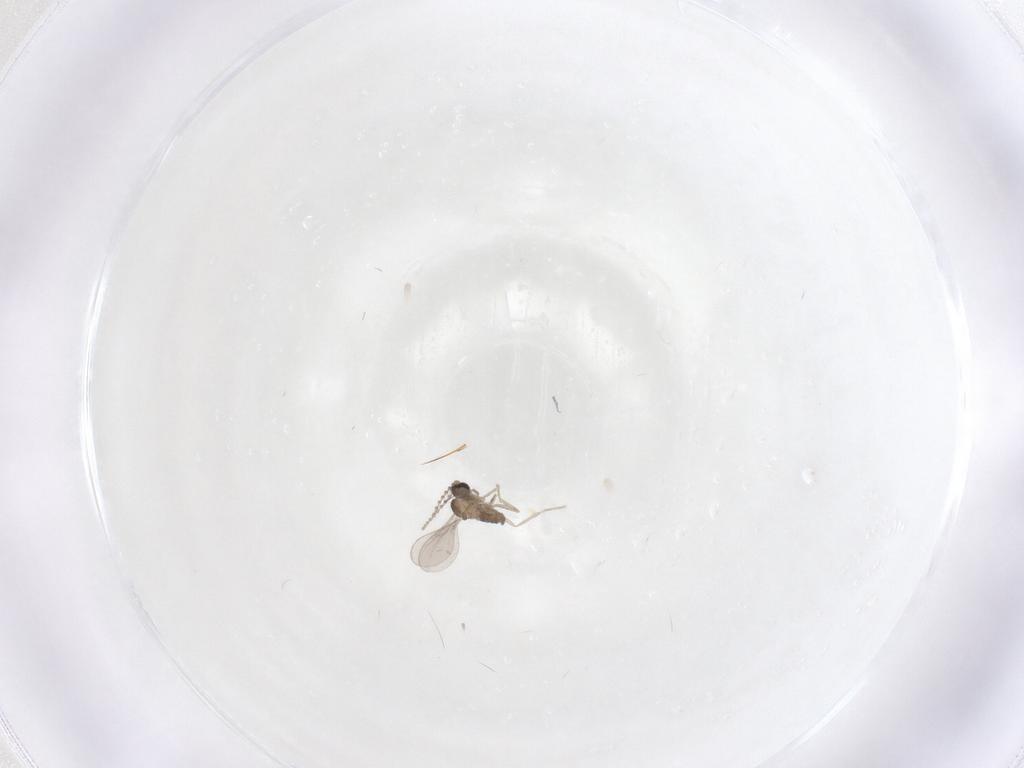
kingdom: Animalia
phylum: Arthropoda
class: Insecta
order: Diptera
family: Cecidomyiidae
